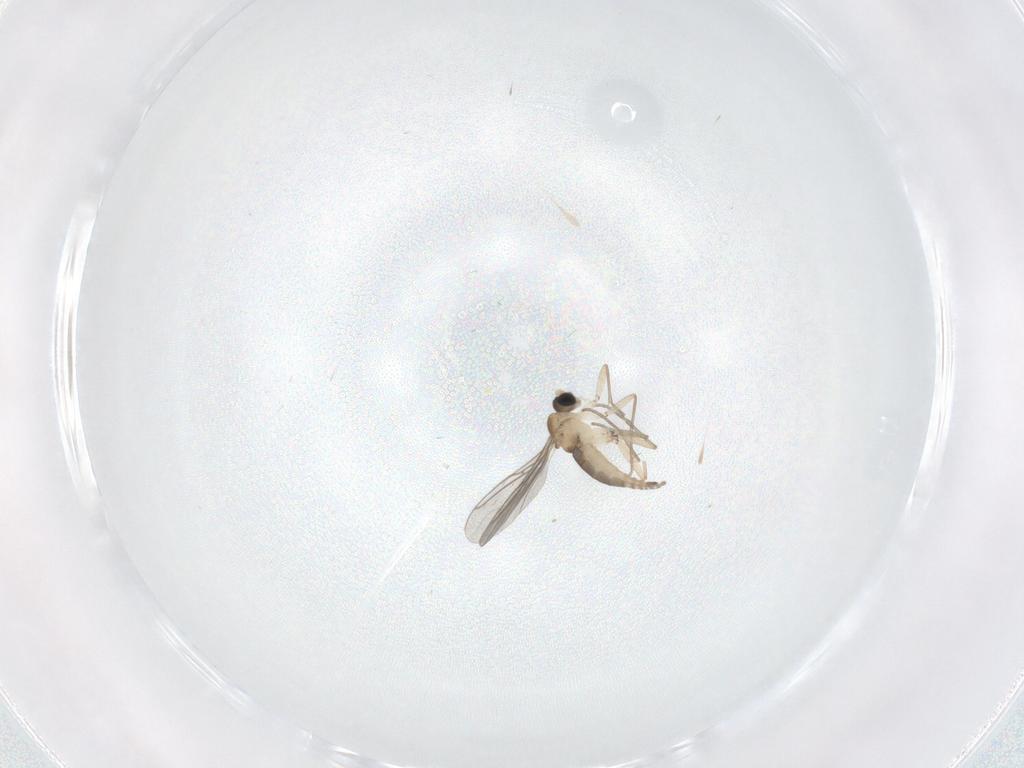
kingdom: Animalia
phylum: Arthropoda
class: Insecta
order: Diptera
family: Sciaridae
